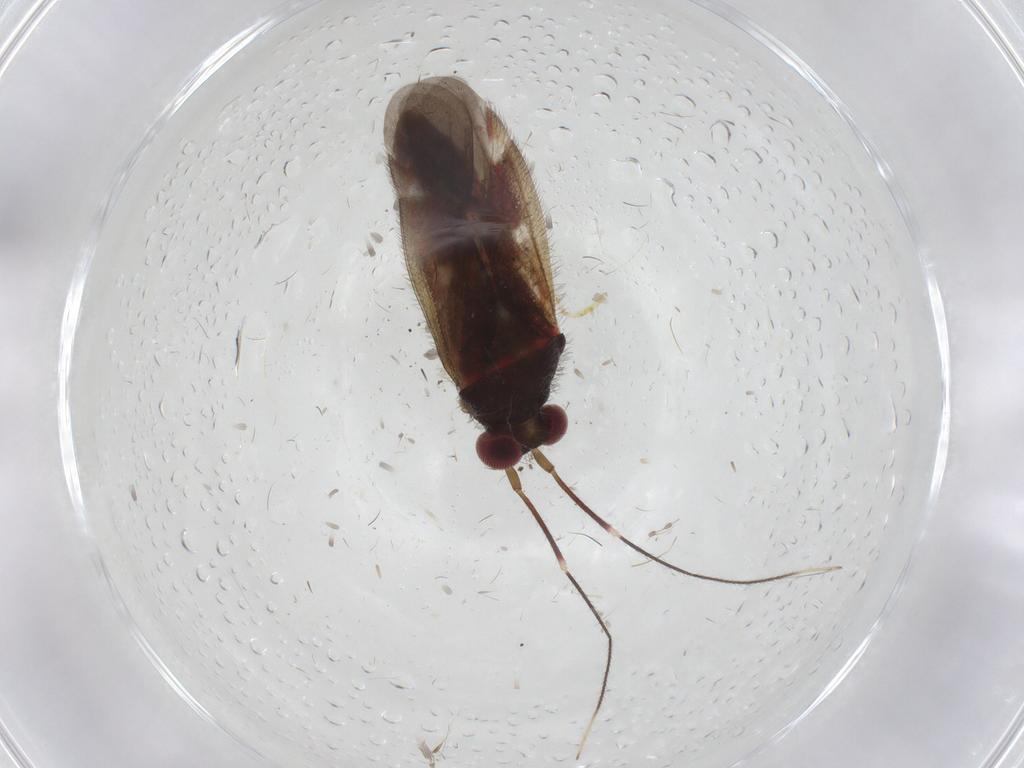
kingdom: Animalia
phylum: Arthropoda
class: Insecta
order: Hemiptera
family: Miridae
